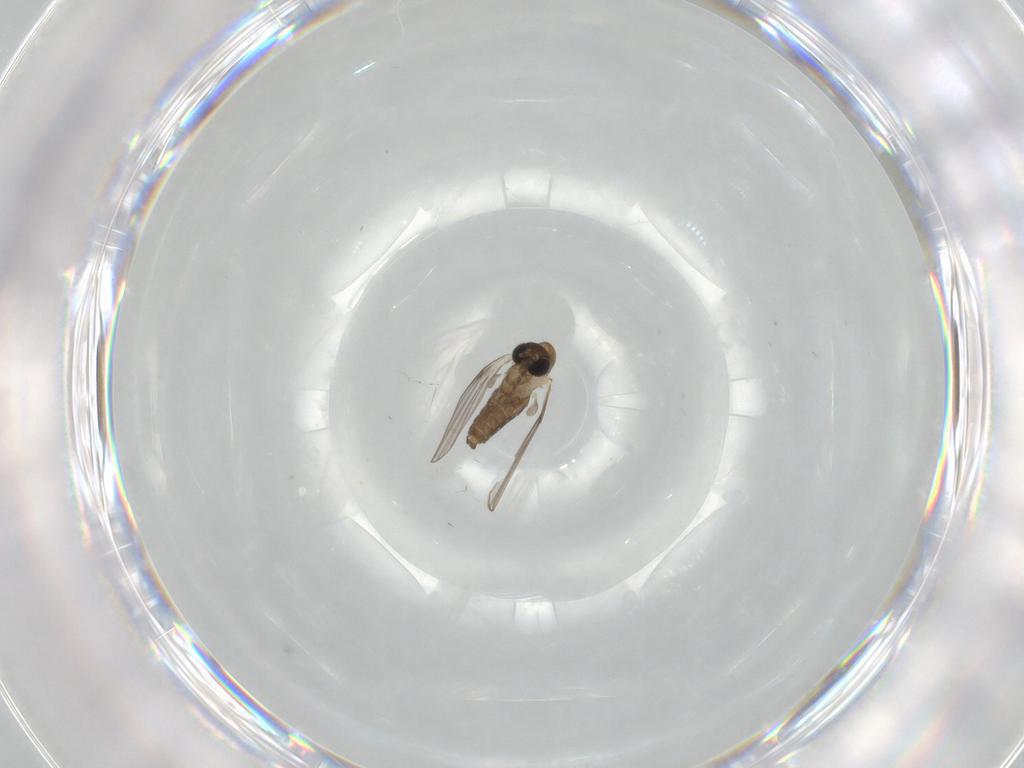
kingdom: Animalia
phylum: Arthropoda
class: Insecta
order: Diptera
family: Psychodidae
